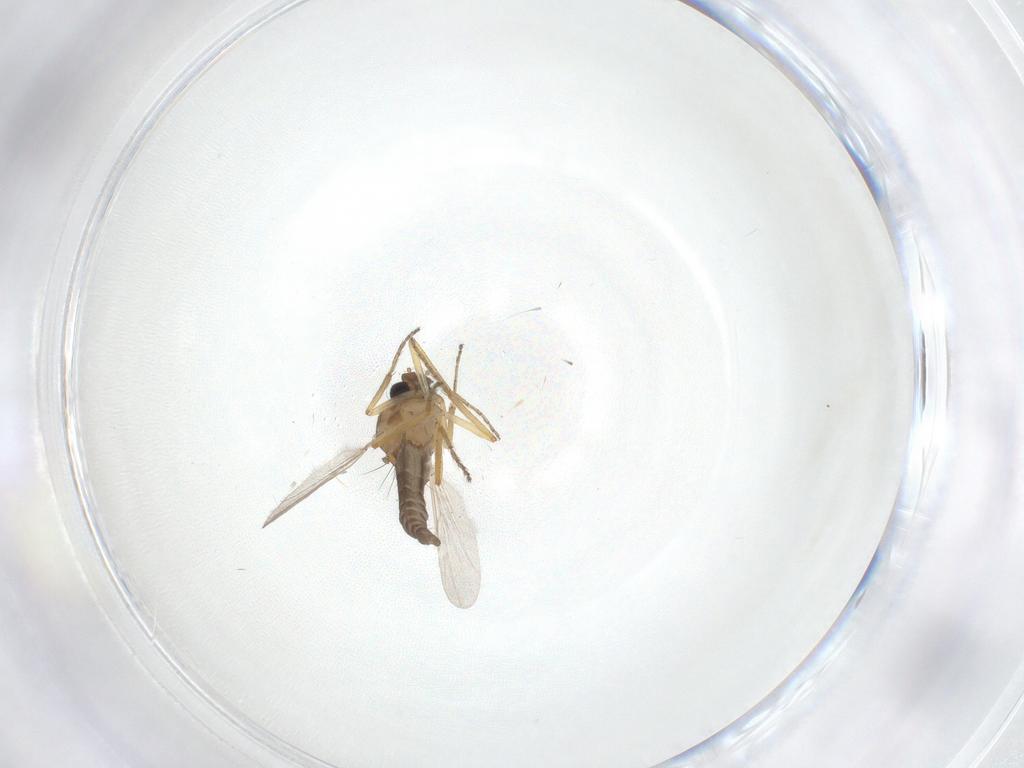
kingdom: Animalia
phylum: Arthropoda
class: Insecta
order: Diptera
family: Ceratopogonidae
